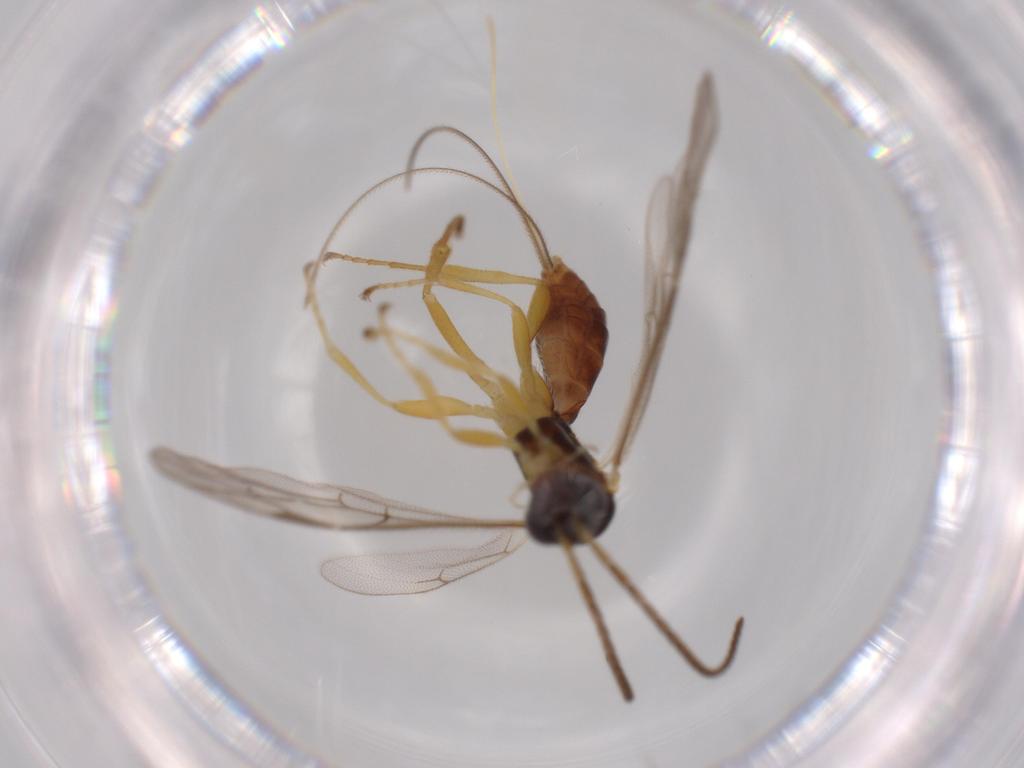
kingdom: Animalia
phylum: Arthropoda
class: Insecta
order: Hymenoptera
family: Ichneumonidae
